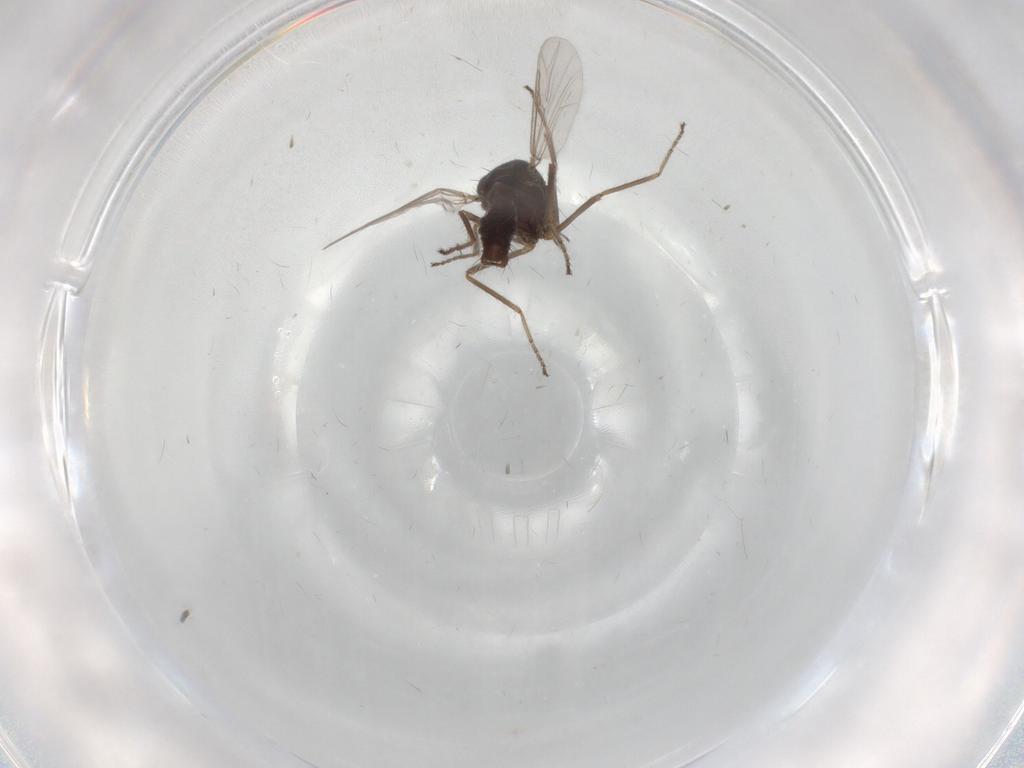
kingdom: Animalia
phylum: Arthropoda
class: Insecta
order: Diptera
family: Ceratopogonidae
